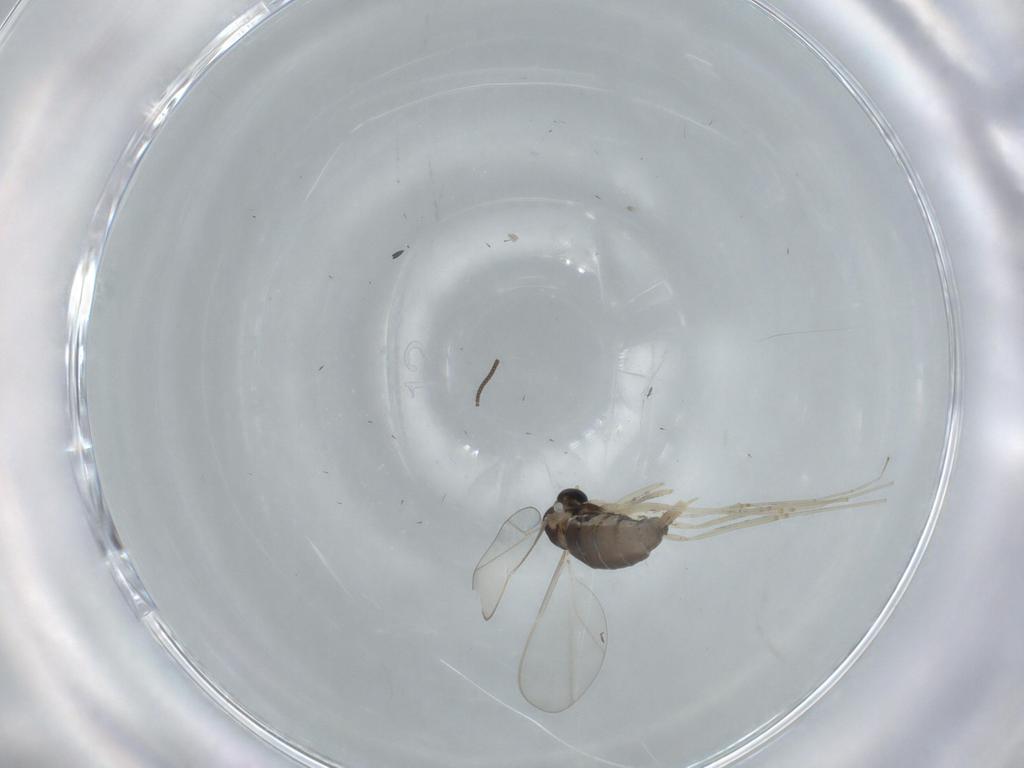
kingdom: Animalia
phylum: Arthropoda
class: Insecta
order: Diptera
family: Cecidomyiidae
